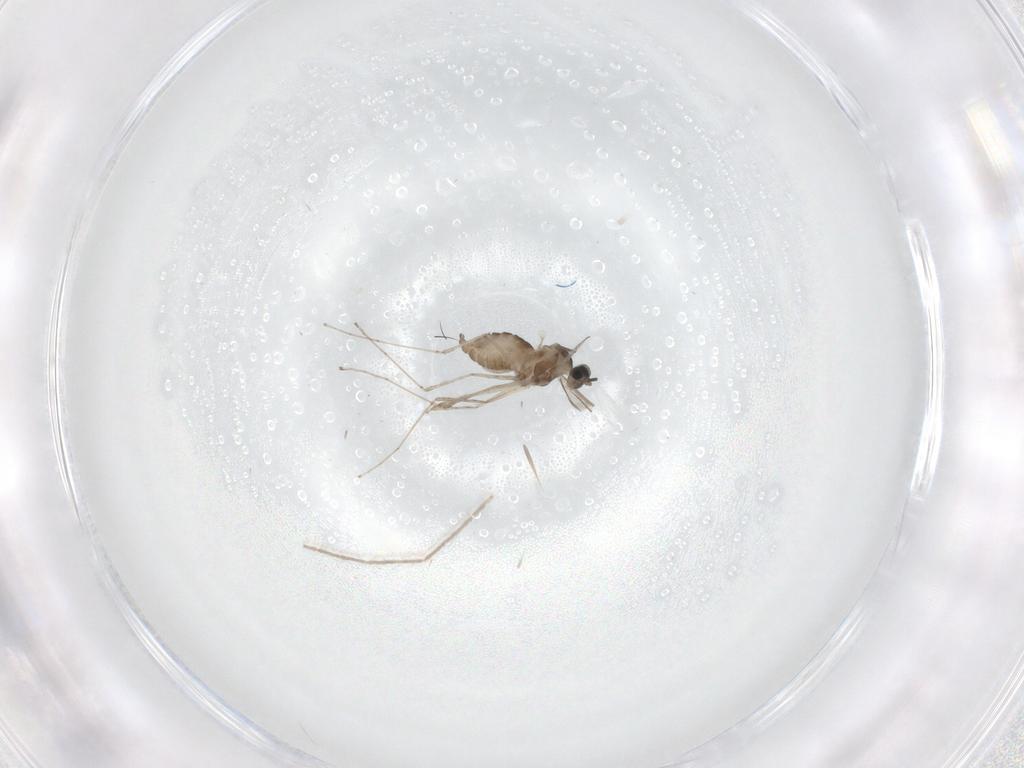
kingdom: Animalia
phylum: Arthropoda
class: Insecta
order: Diptera
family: Cecidomyiidae
